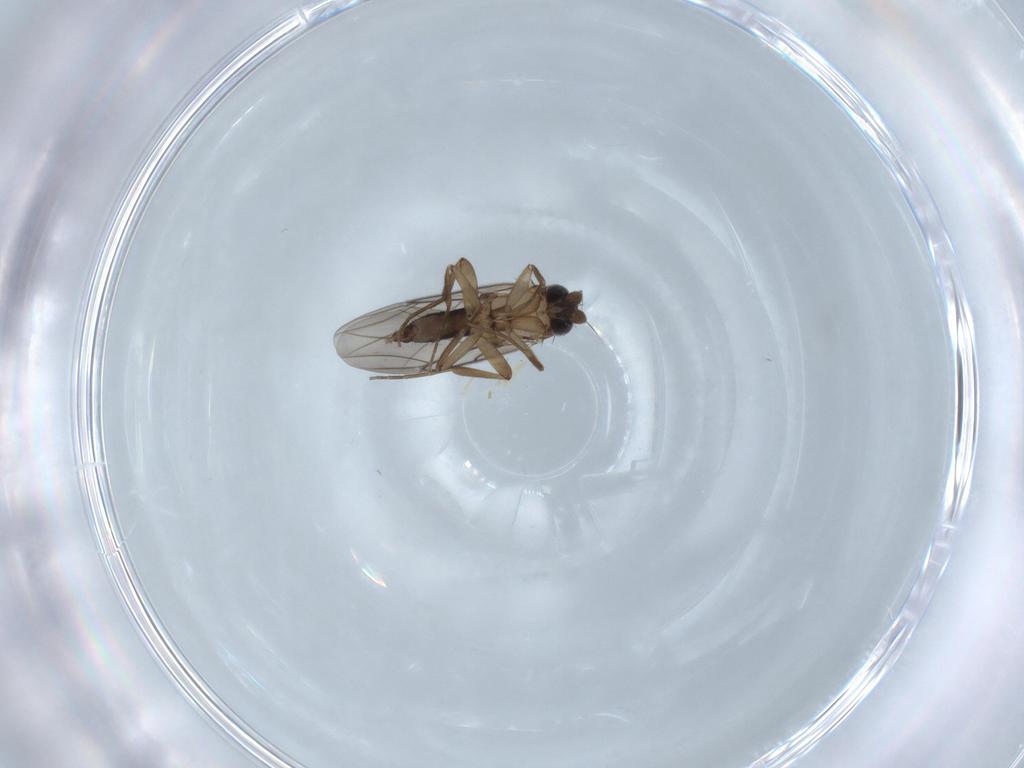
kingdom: Animalia
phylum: Arthropoda
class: Insecta
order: Diptera
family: Phoridae
